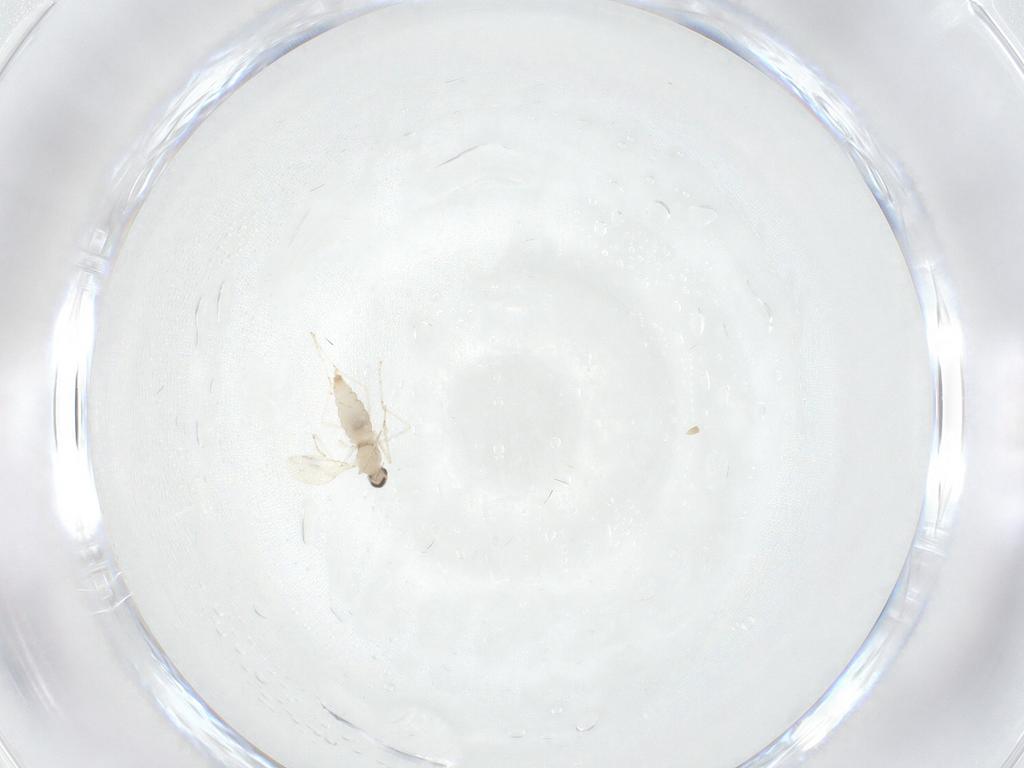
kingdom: Animalia
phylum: Arthropoda
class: Insecta
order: Diptera
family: Cecidomyiidae
